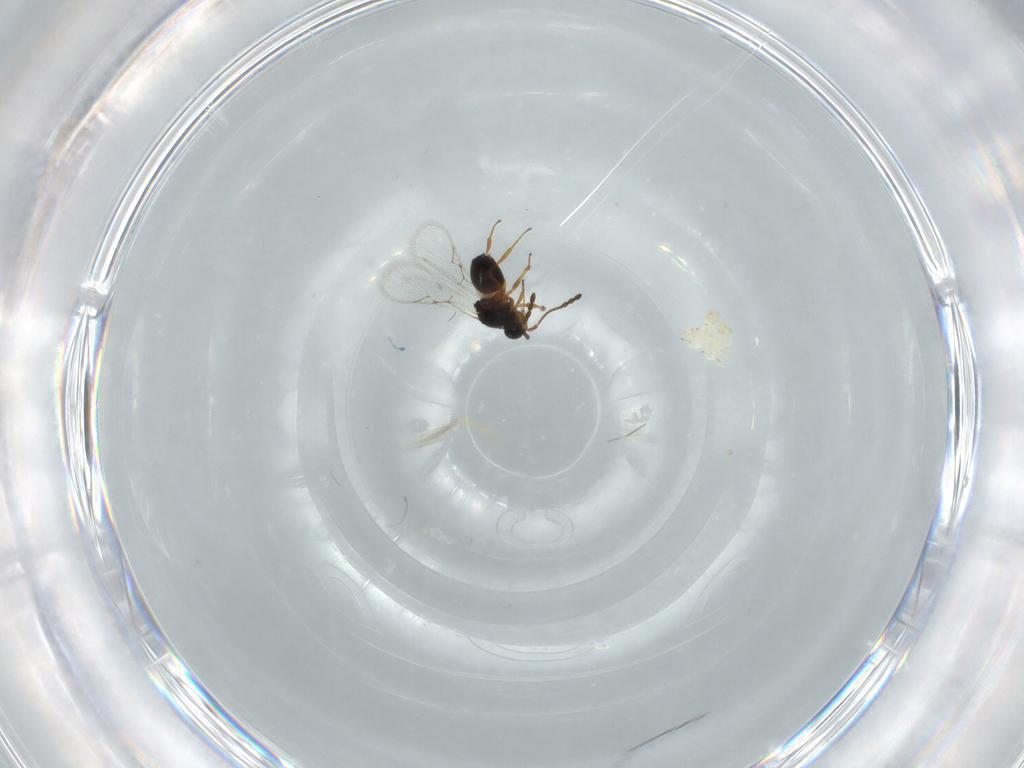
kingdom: Animalia
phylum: Arthropoda
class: Insecta
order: Hymenoptera
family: Figitidae
